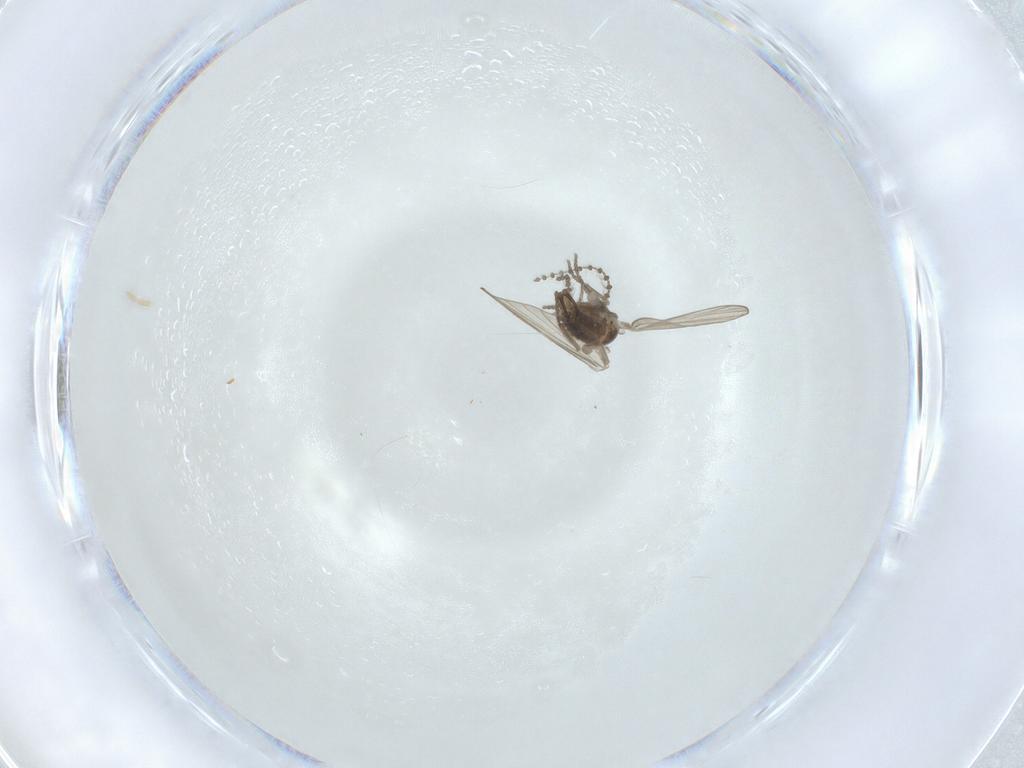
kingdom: Animalia
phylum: Arthropoda
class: Insecta
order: Diptera
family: Psychodidae
